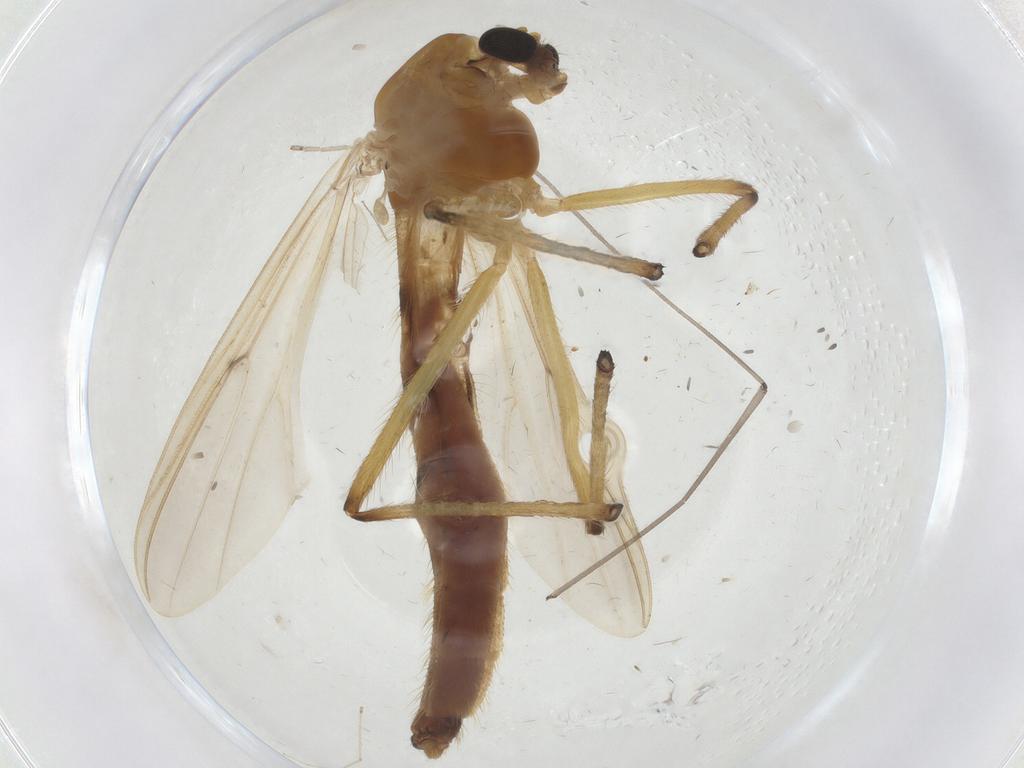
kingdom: Animalia
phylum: Arthropoda
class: Insecta
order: Diptera
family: Chironomidae
